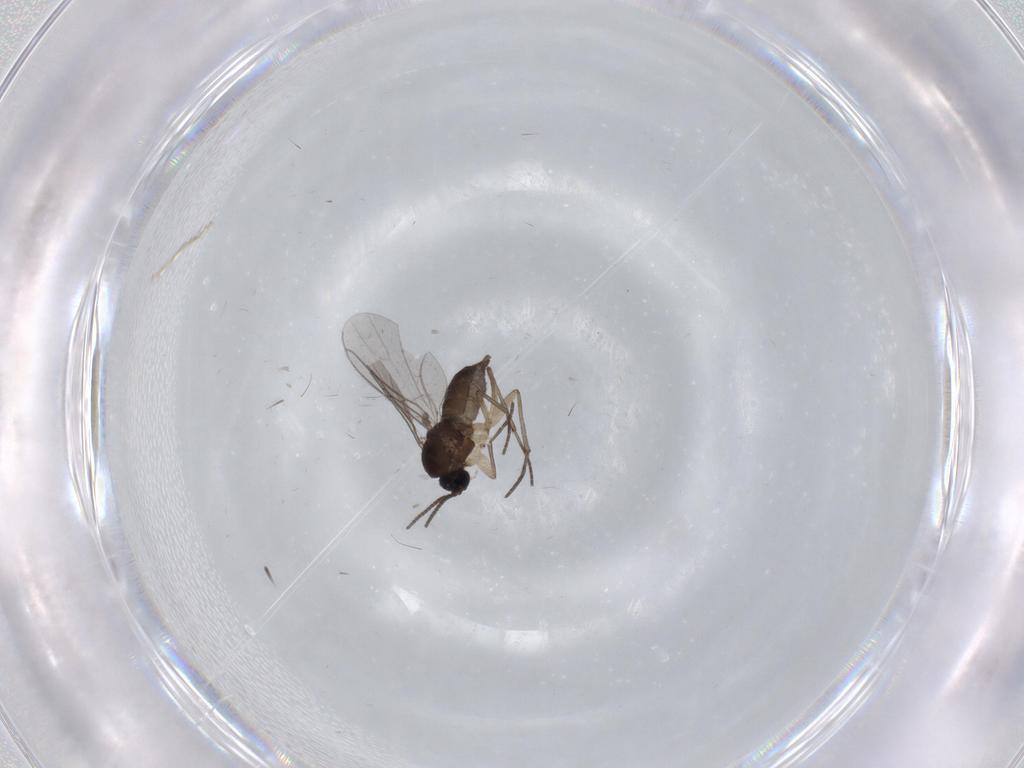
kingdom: Animalia
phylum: Arthropoda
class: Insecta
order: Diptera
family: Sciaridae
